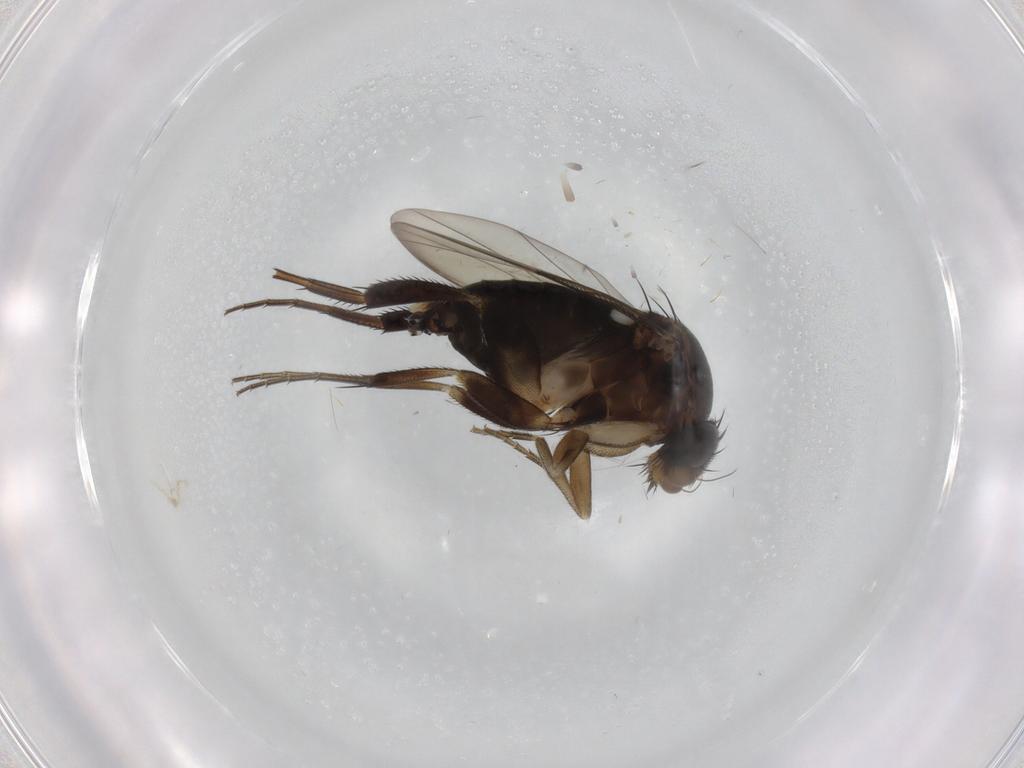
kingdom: Animalia
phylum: Arthropoda
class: Insecta
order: Diptera
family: Phoridae
